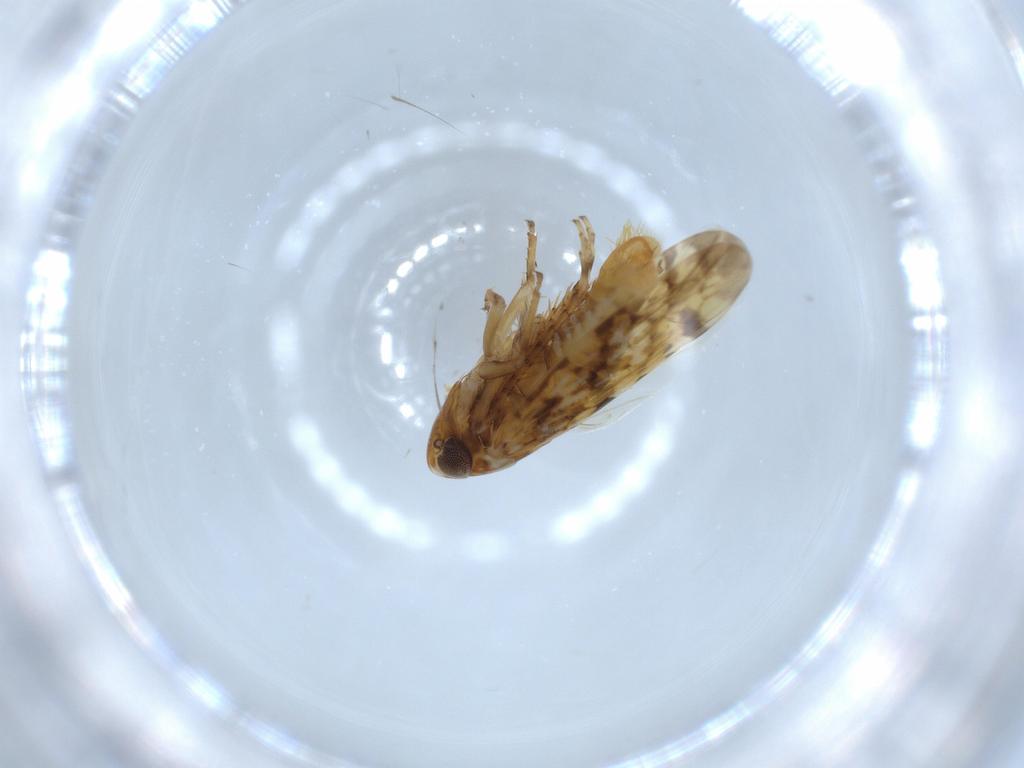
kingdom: Animalia
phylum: Arthropoda
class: Insecta
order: Hemiptera
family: Cicadellidae
